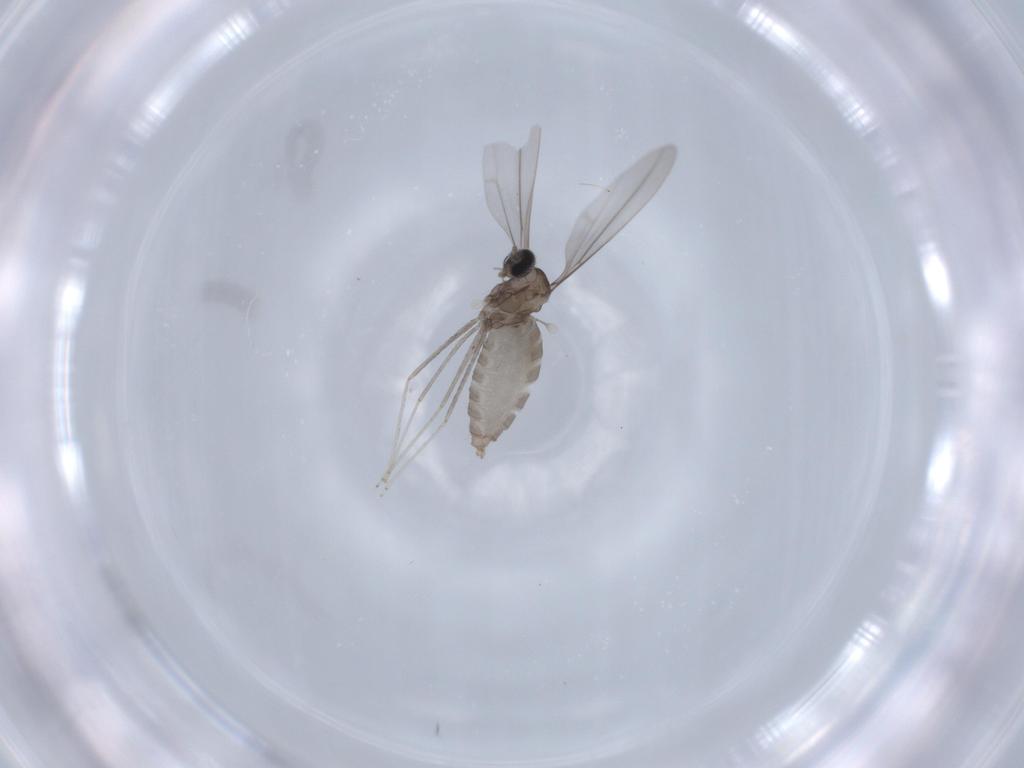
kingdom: Animalia
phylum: Arthropoda
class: Insecta
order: Diptera
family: Cecidomyiidae
